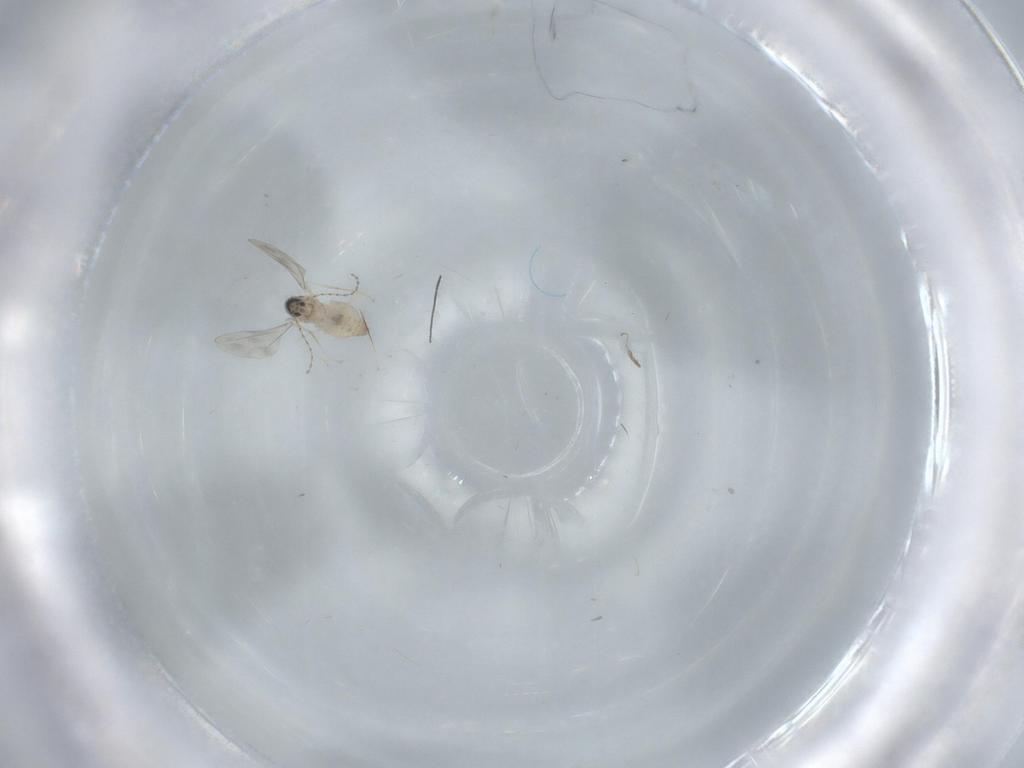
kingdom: Animalia
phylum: Arthropoda
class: Insecta
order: Diptera
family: Cecidomyiidae
